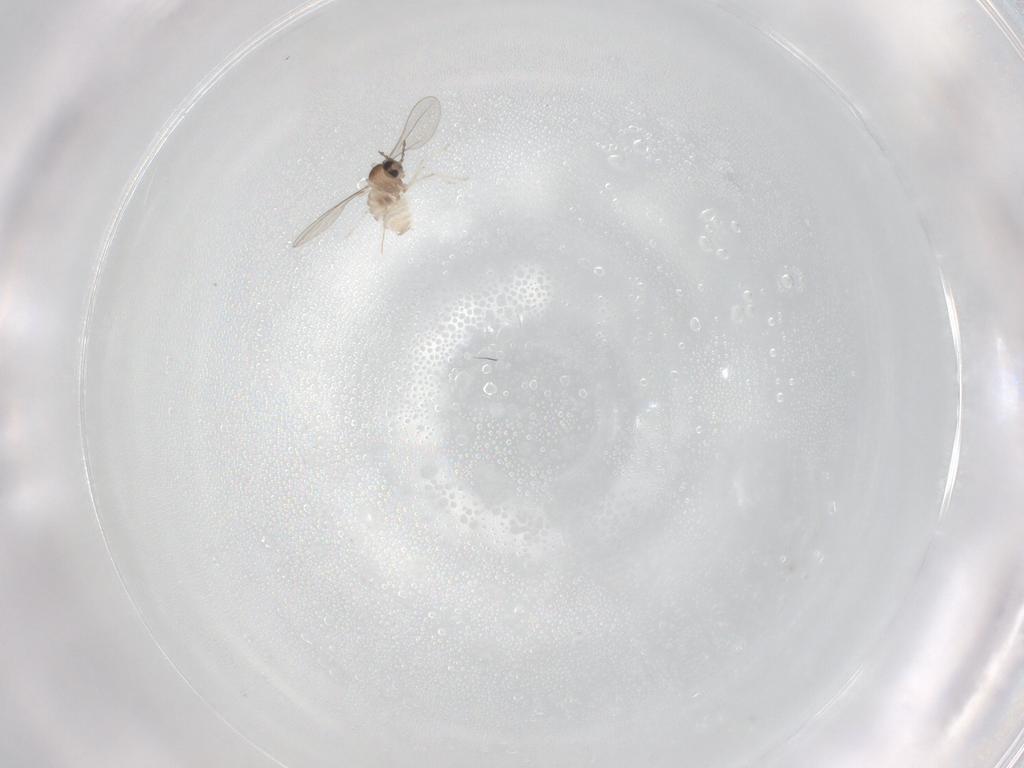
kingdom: Animalia
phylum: Arthropoda
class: Insecta
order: Diptera
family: Cecidomyiidae
